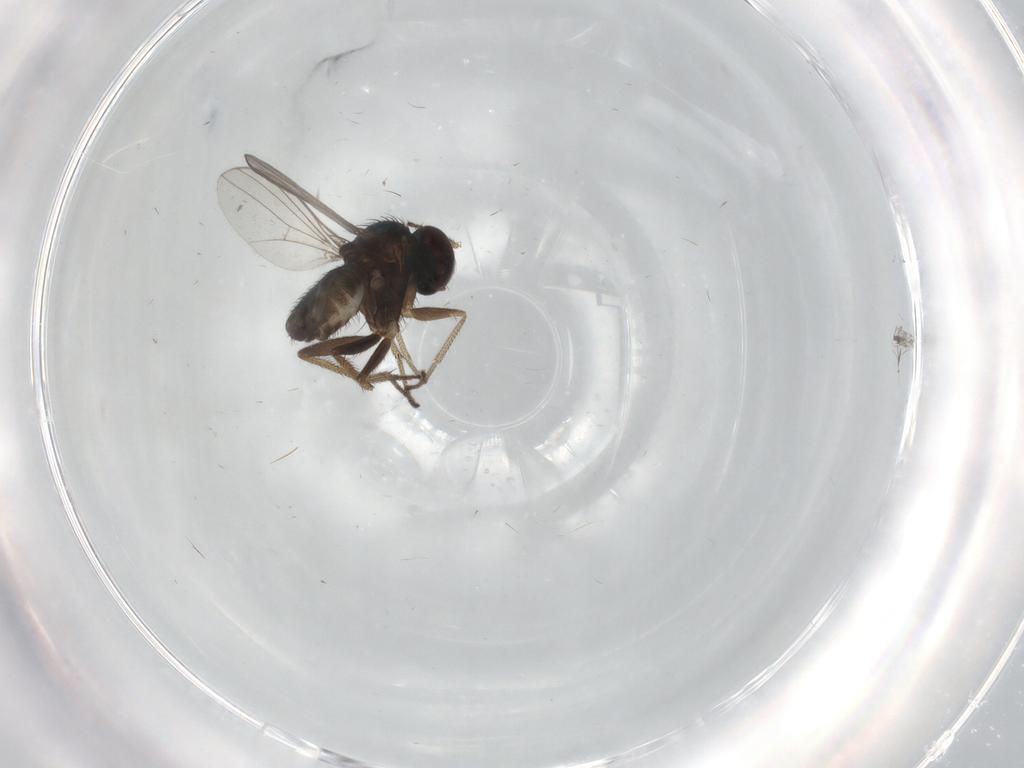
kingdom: Animalia
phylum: Arthropoda
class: Insecta
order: Diptera
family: Dolichopodidae
